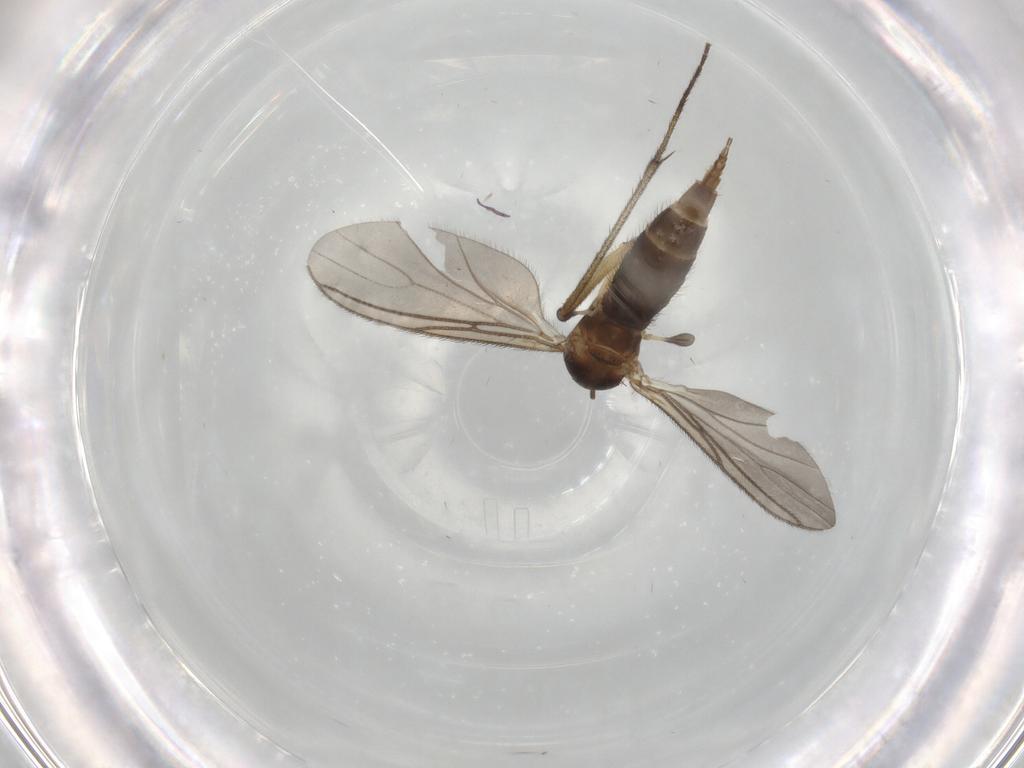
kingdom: Animalia
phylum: Arthropoda
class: Insecta
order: Diptera
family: Sciaridae
